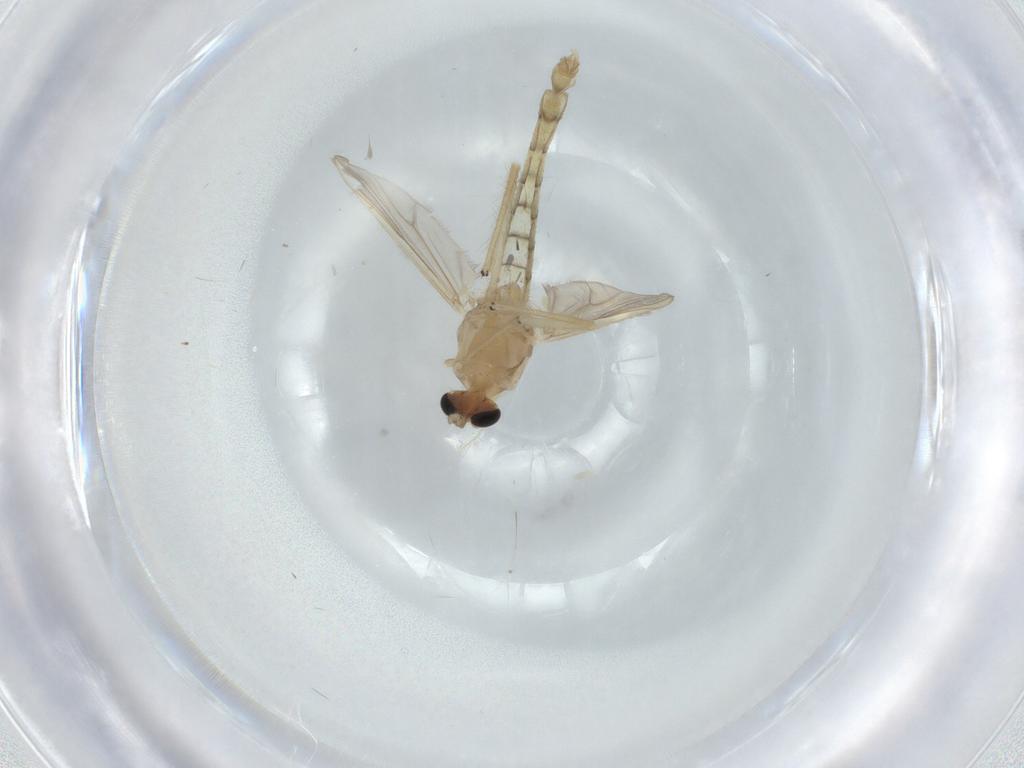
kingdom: Animalia
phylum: Arthropoda
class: Insecta
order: Diptera
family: Chironomidae
